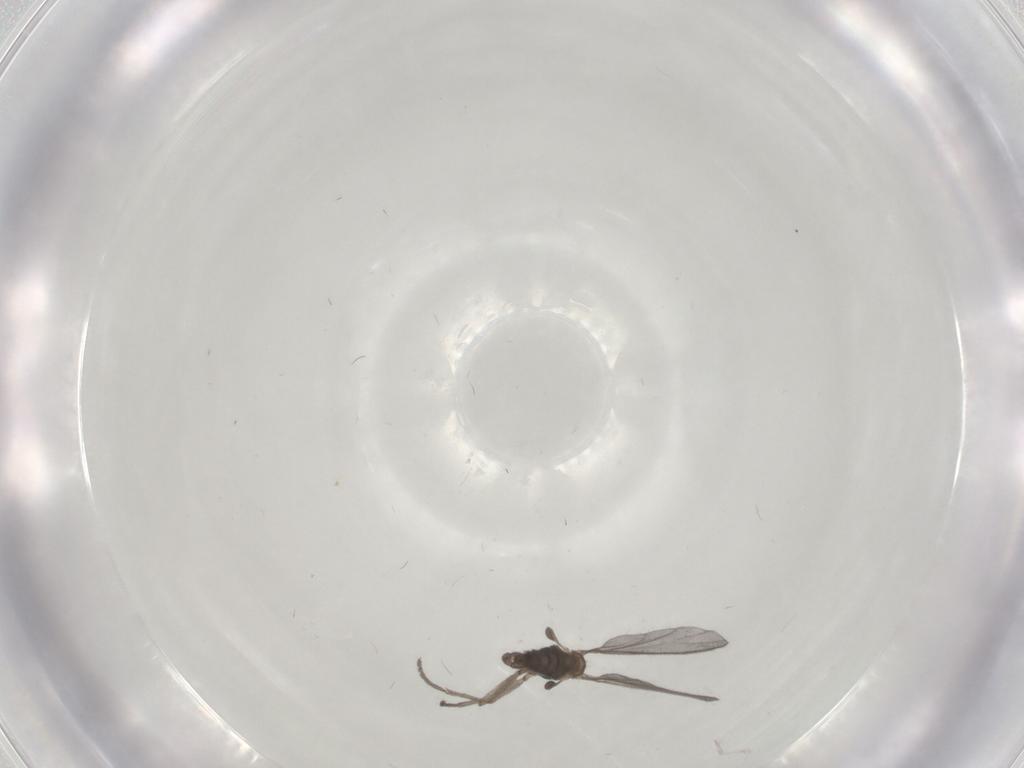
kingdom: Animalia
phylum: Arthropoda
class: Insecta
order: Diptera
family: Sciaridae
